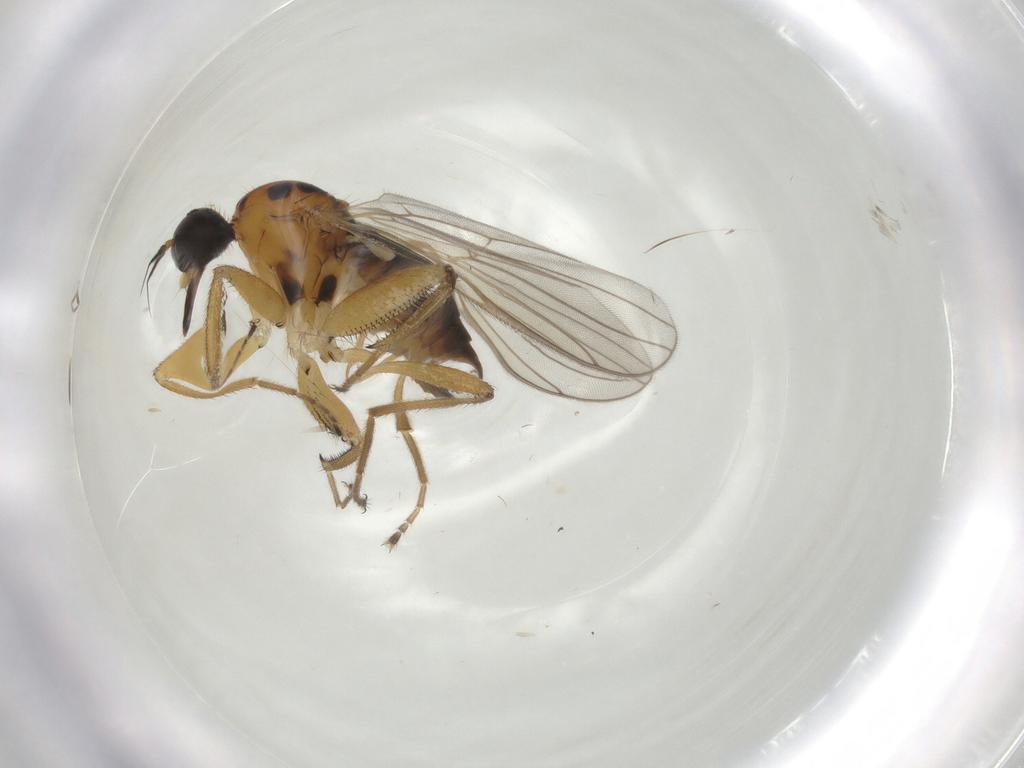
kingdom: Animalia
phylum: Arthropoda
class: Insecta
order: Diptera
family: Hybotidae
